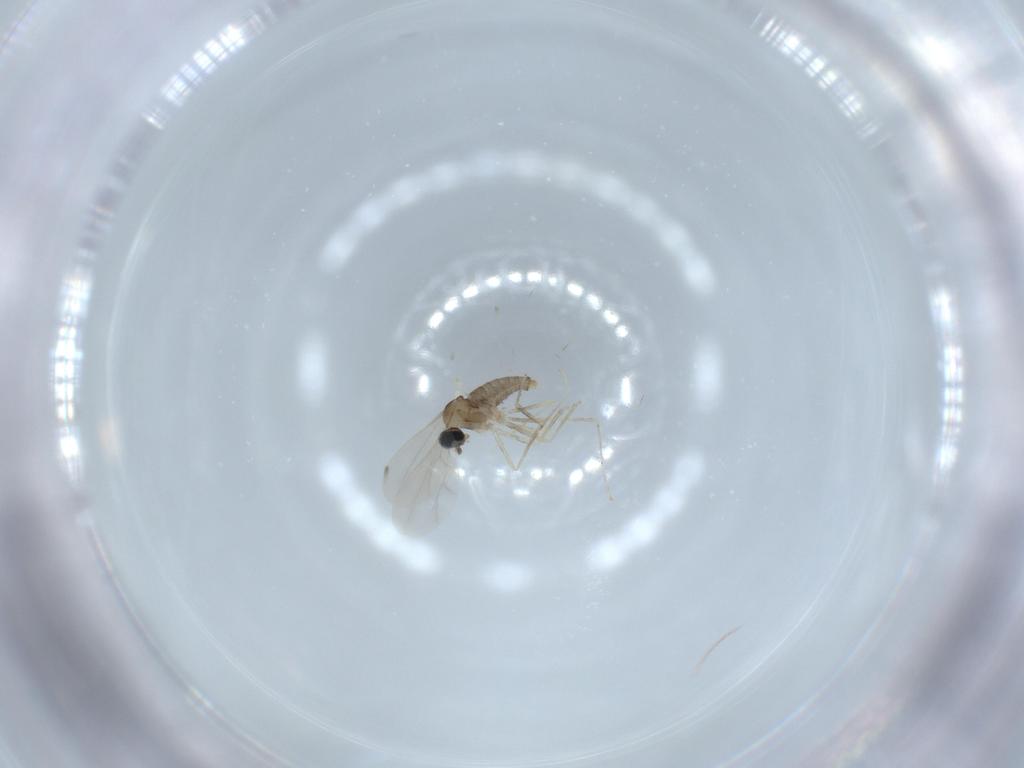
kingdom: Animalia
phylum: Arthropoda
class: Insecta
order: Diptera
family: Cecidomyiidae
